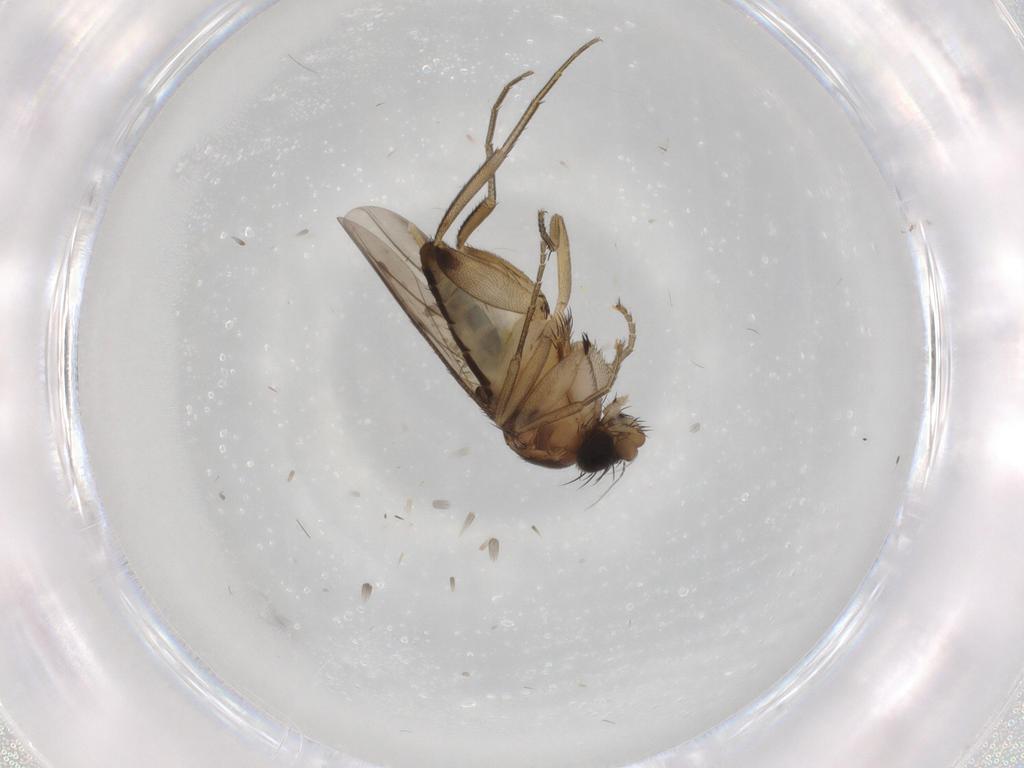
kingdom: Animalia
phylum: Arthropoda
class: Insecta
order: Diptera
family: Phoridae
